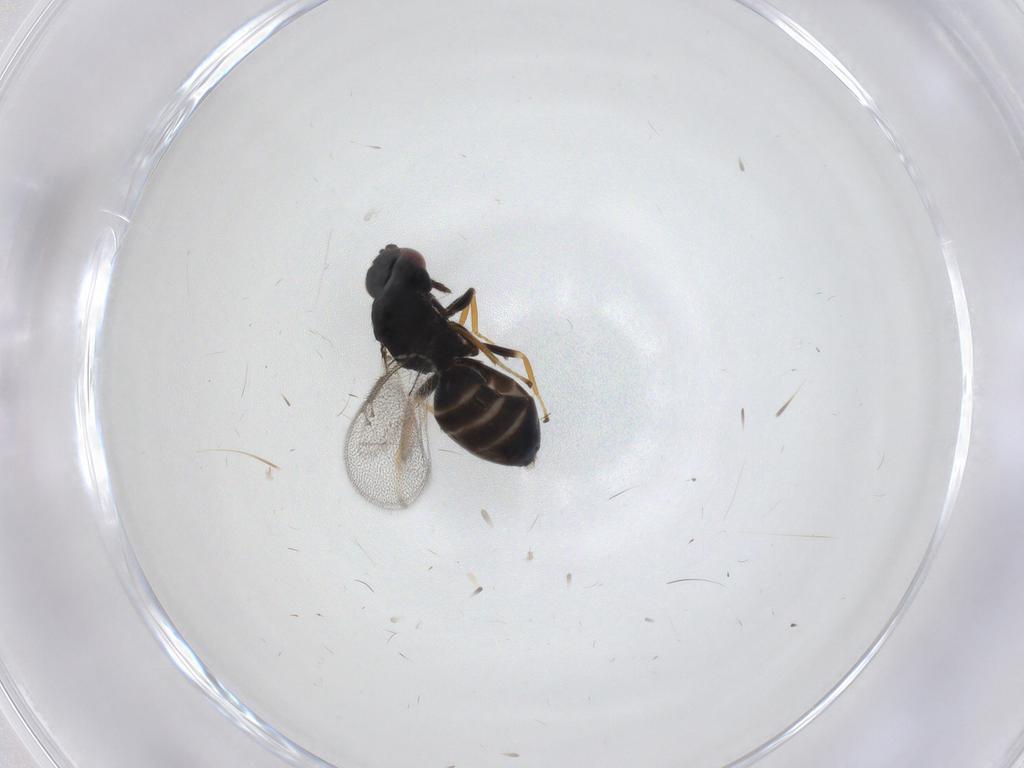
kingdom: Animalia
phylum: Arthropoda
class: Insecta
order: Hymenoptera
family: Eulophidae
